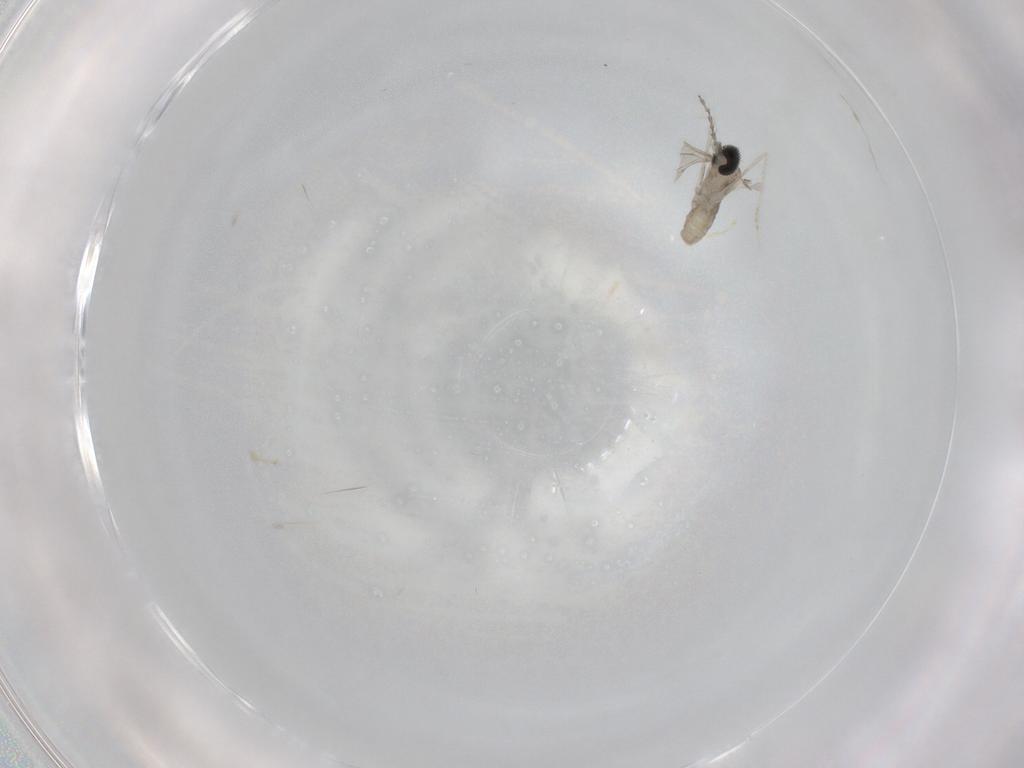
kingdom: Animalia
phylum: Arthropoda
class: Insecta
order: Diptera
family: Cecidomyiidae
